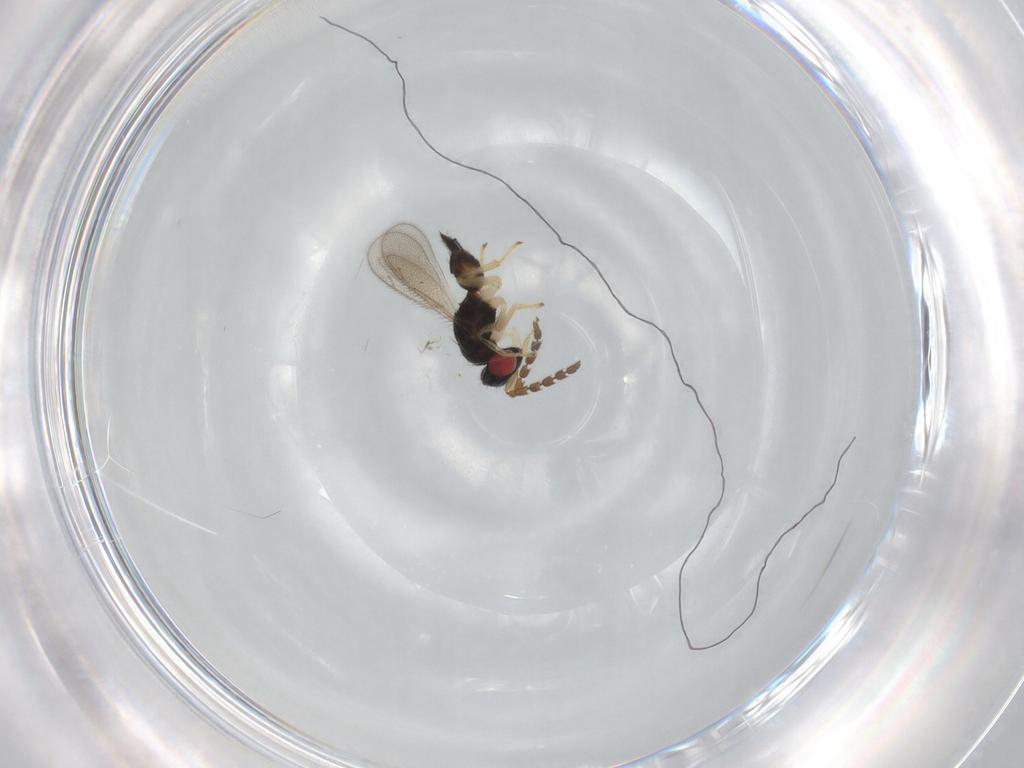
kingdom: Animalia
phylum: Arthropoda
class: Insecta
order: Hymenoptera
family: Eulophidae
